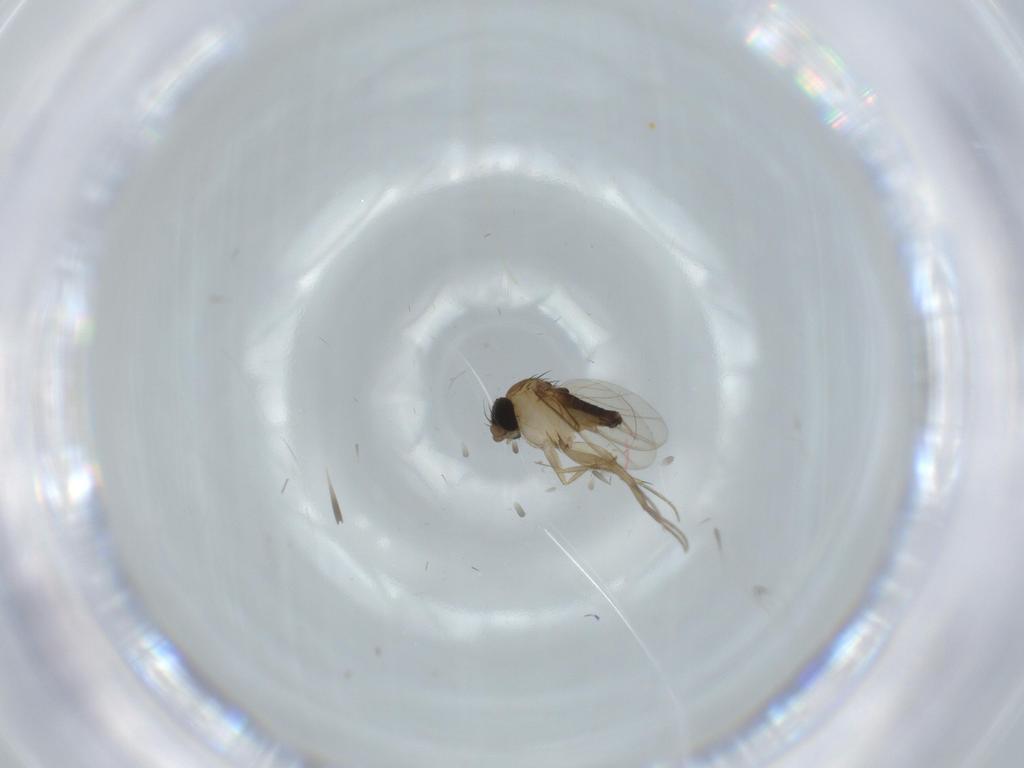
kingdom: Animalia
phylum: Arthropoda
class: Insecta
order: Diptera
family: Phoridae
